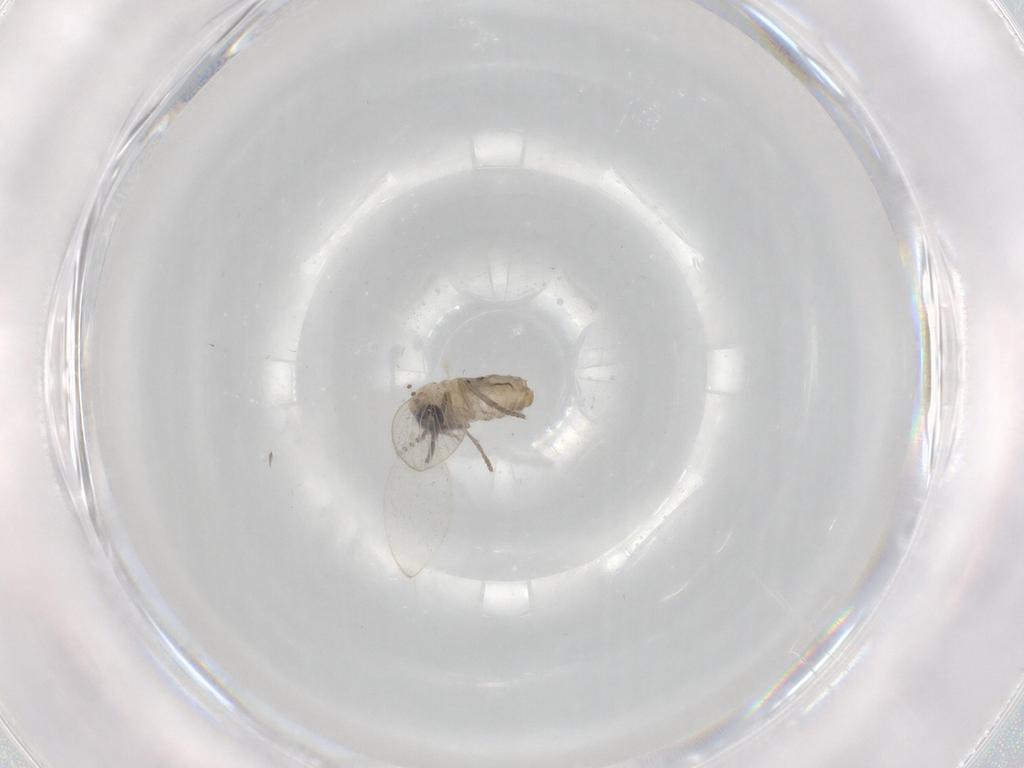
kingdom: Animalia
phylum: Arthropoda
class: Insecta
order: Diptera
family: Psychodidae
